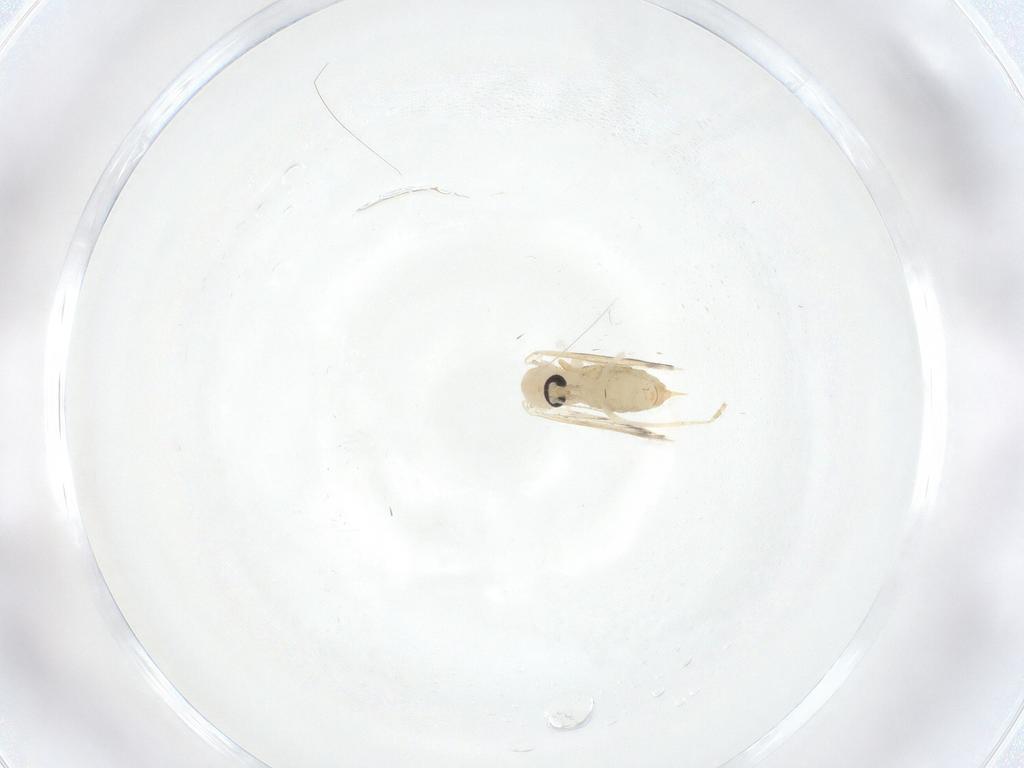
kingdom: Animalia
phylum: Arthropoda
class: Insecta
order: Diptera
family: Psychodidae
